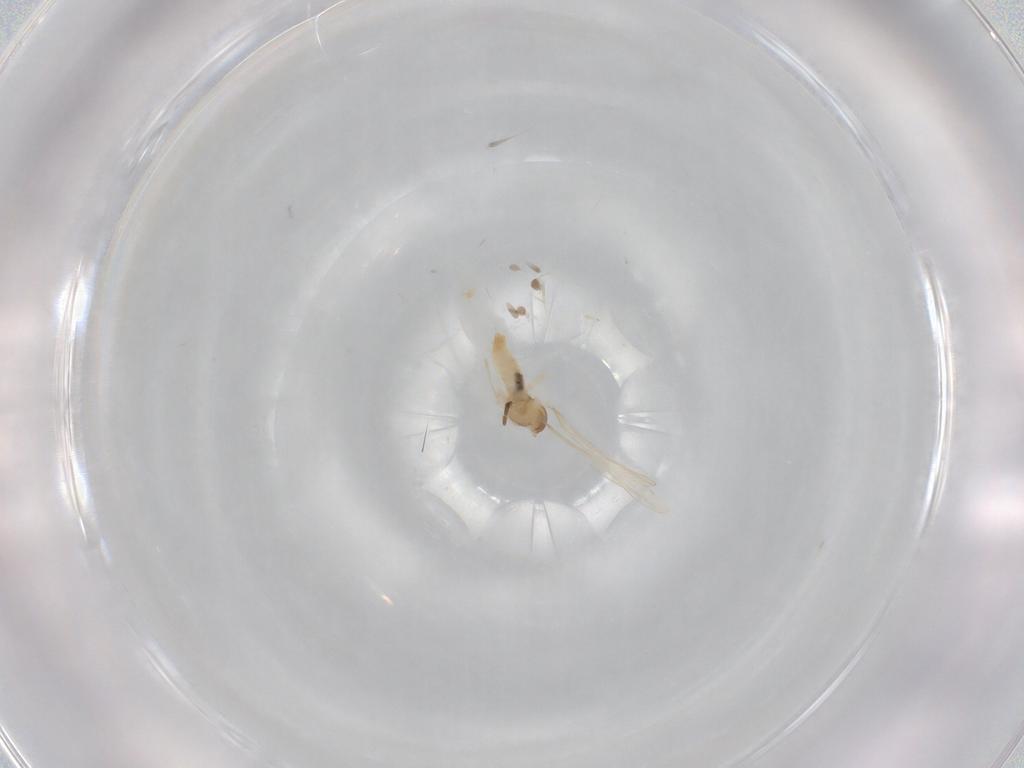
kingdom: Animalia
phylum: Arthropoda
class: Insecta
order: Diptera
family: Cecidomyiidae
